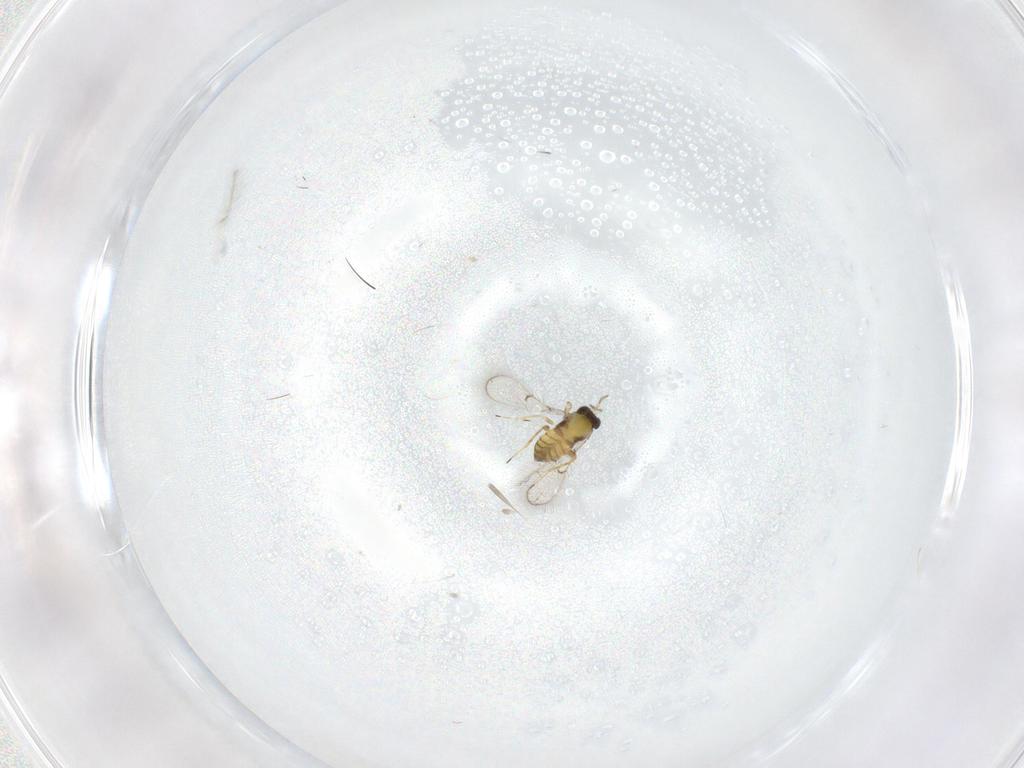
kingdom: Animalia
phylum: Arthropoda
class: Insecta
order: Hymenoptera
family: Trichogrammatidae
